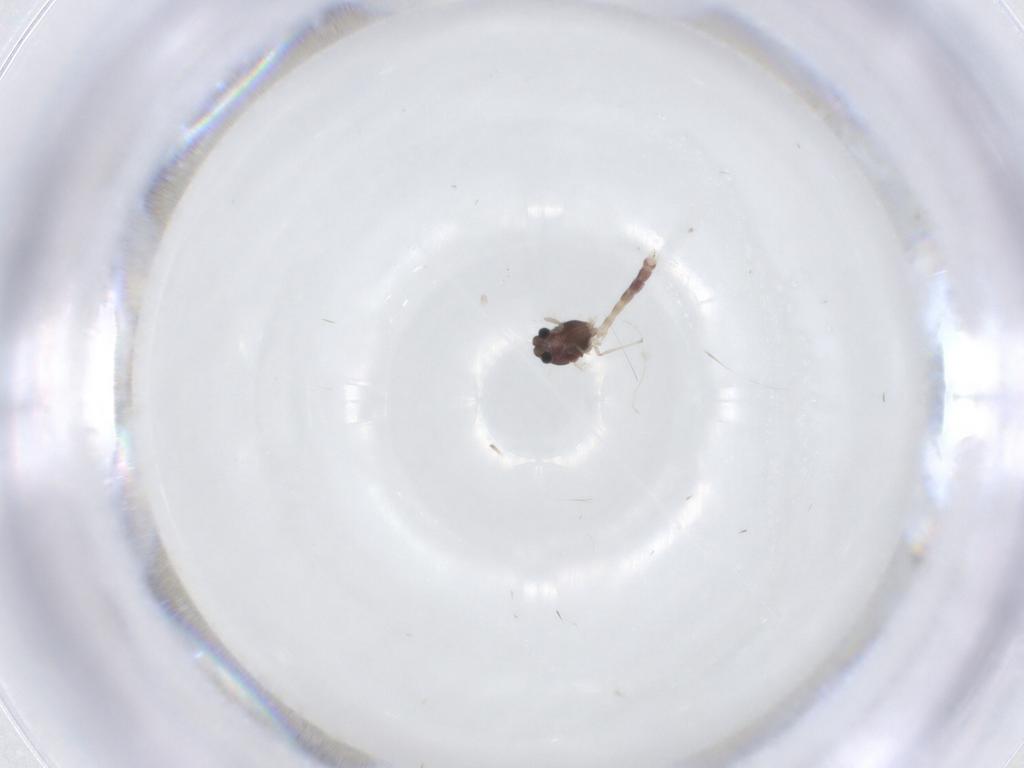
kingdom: Animalia
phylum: Arthropoda
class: Insecta
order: Diptera
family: Chironomidae
